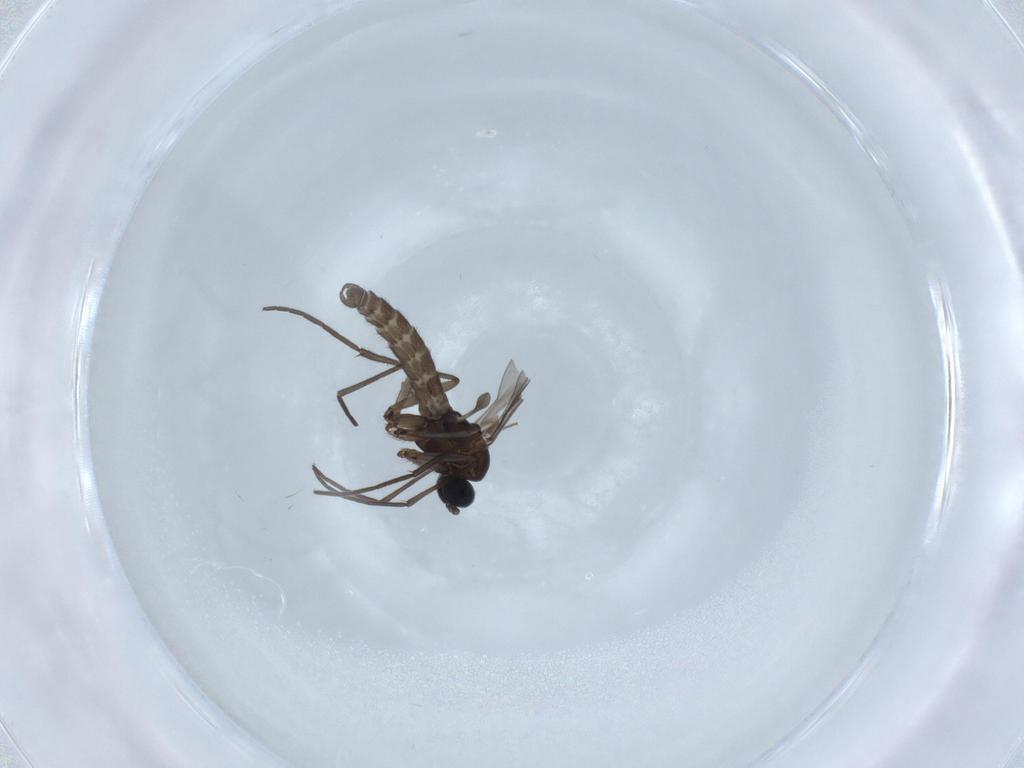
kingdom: Animalia
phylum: Arthropoda
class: Insecta
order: Diptera
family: Sciaridae
